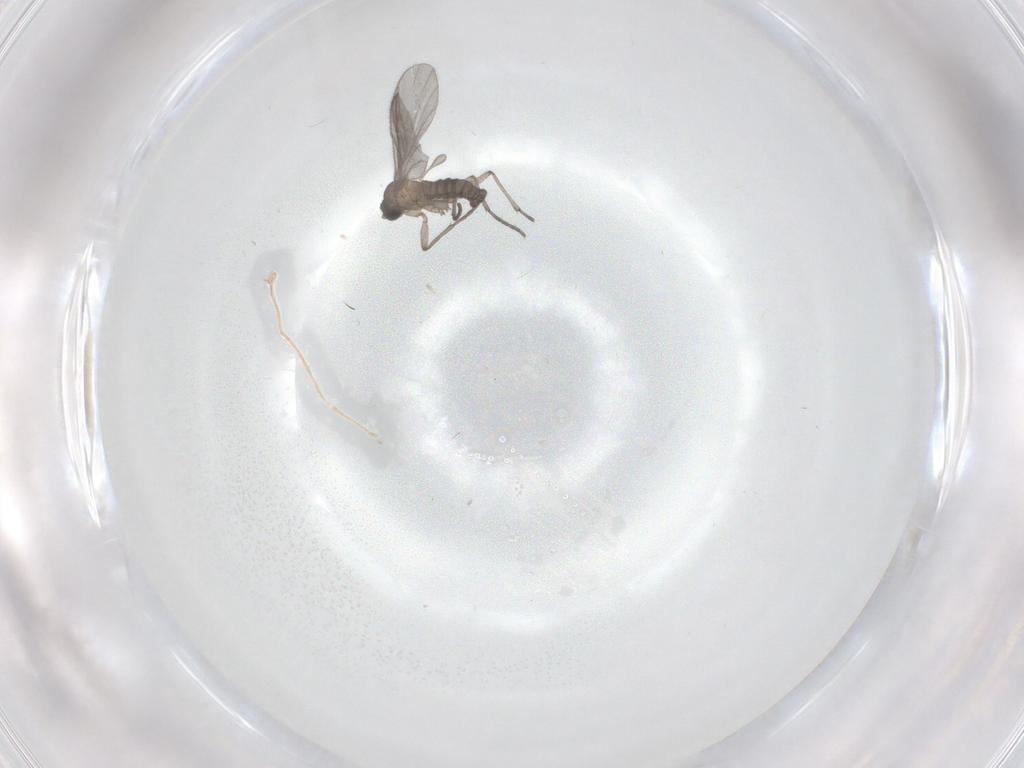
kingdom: Animalia
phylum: Arthropoda
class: Insecta
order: Diptera
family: Sciaridae
